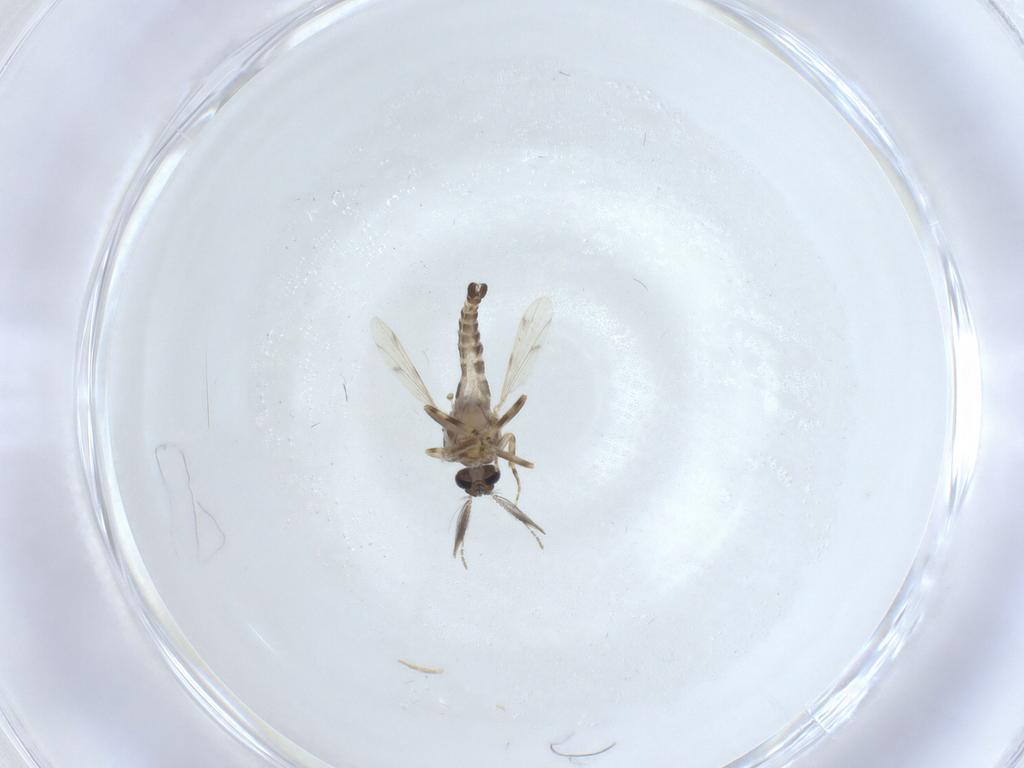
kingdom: Animalia
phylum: Arthropoda
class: Insecta
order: Diptera
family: Ceratopogonidae
